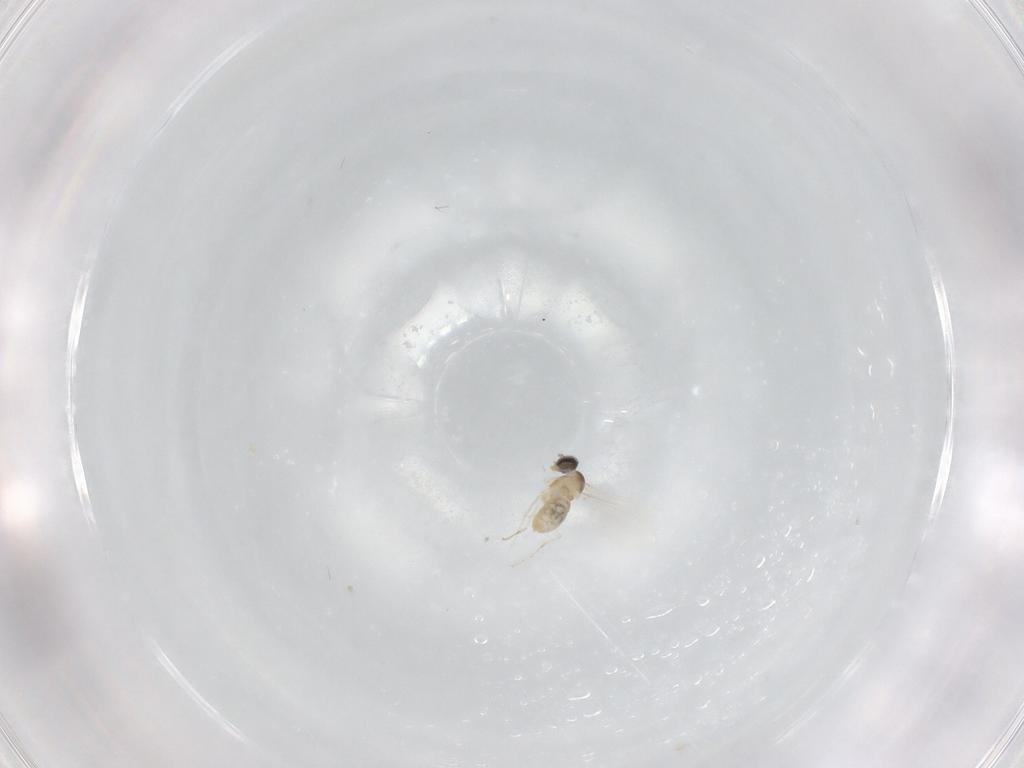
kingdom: Animalia
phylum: Arthropoda
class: Insecta
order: Diptera
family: Cecidomyiidae
